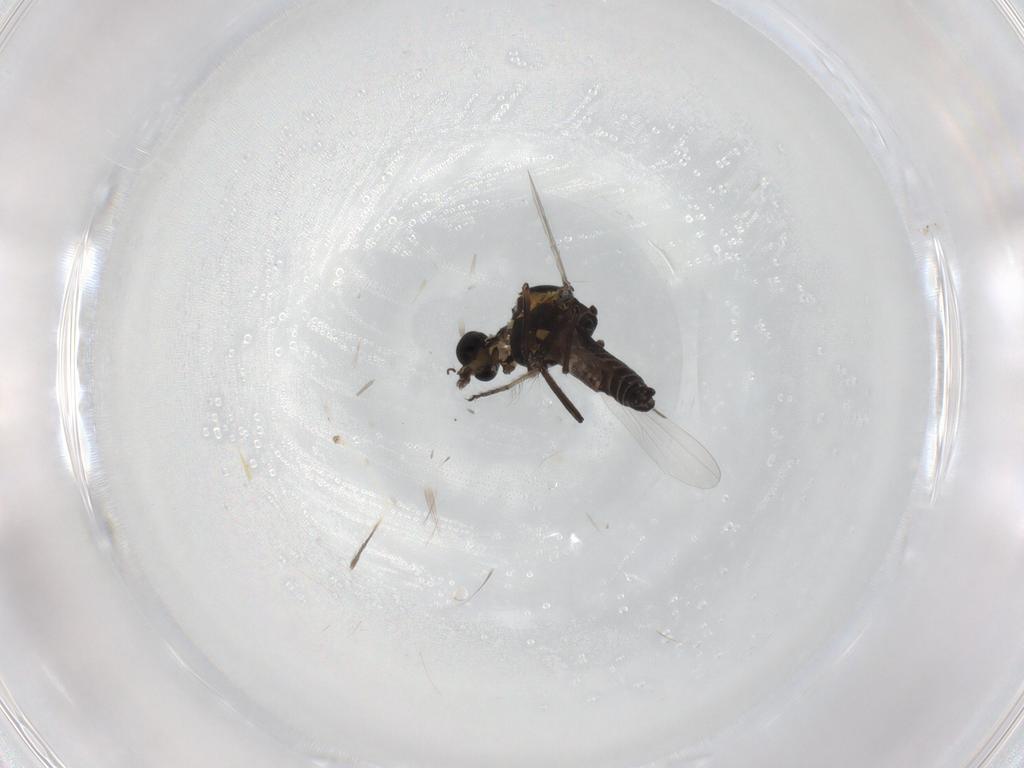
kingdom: Animalia
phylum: Arthropoda
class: Insecta
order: Diptera
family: Cecidomyiidae
